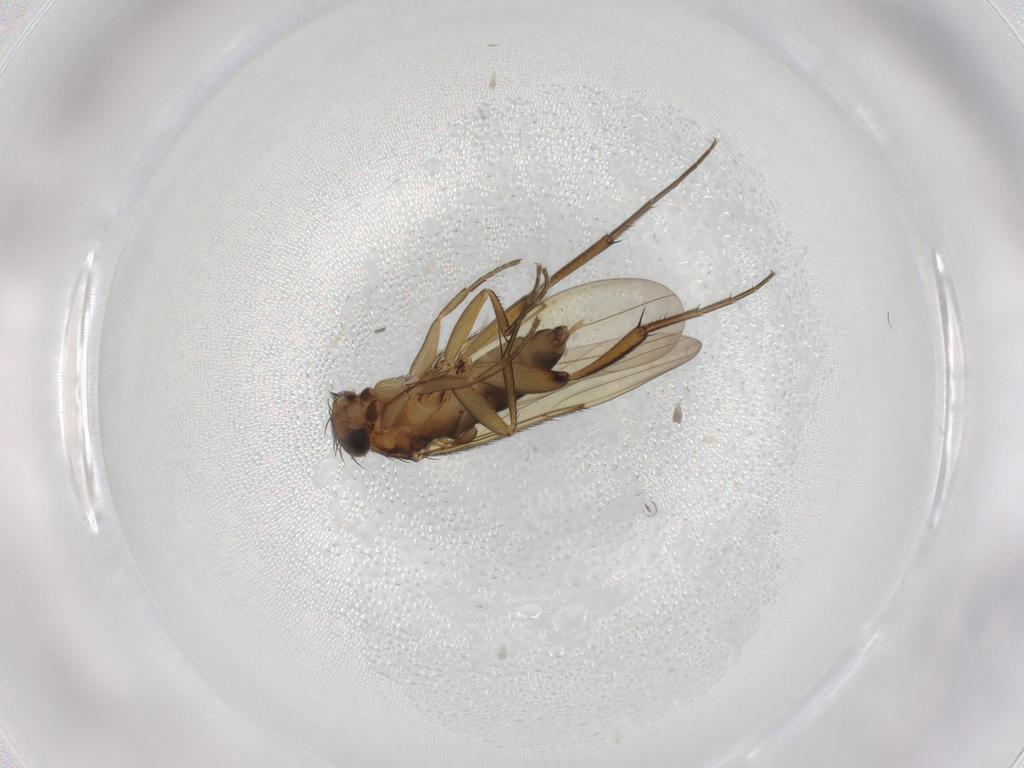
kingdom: Animalia
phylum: Arthropoda
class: Insecta
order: Diptera
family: Phoridae
